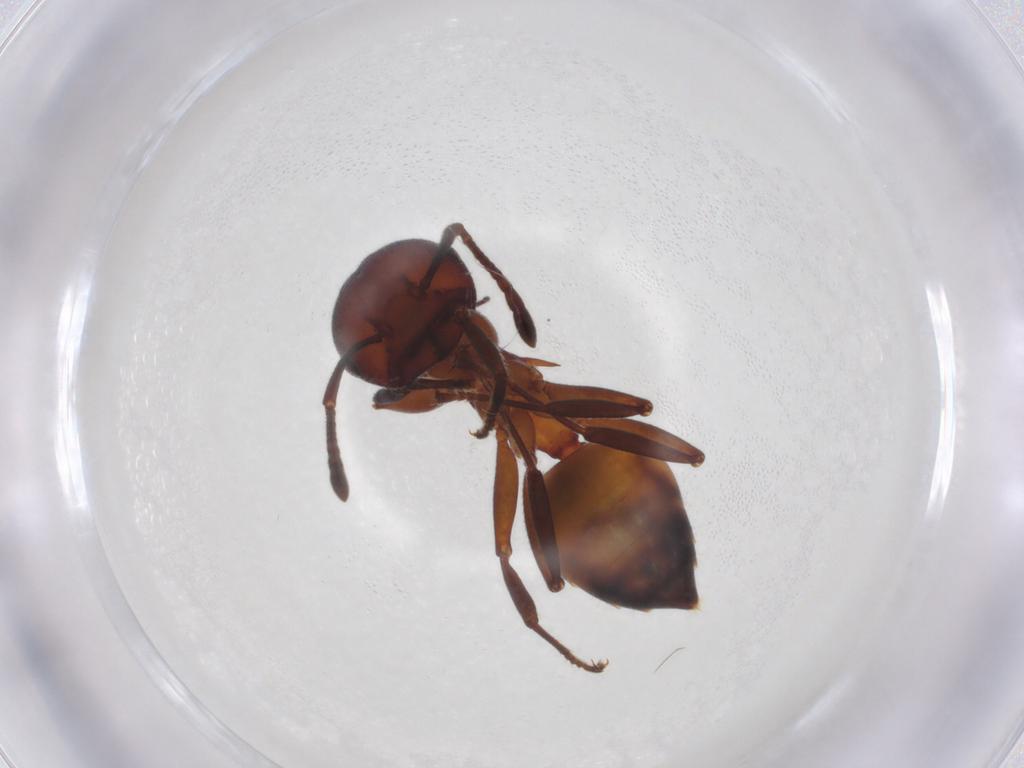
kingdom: Animalia
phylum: Arthropoda
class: Insecta
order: Hymenoptera
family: Formicidae
